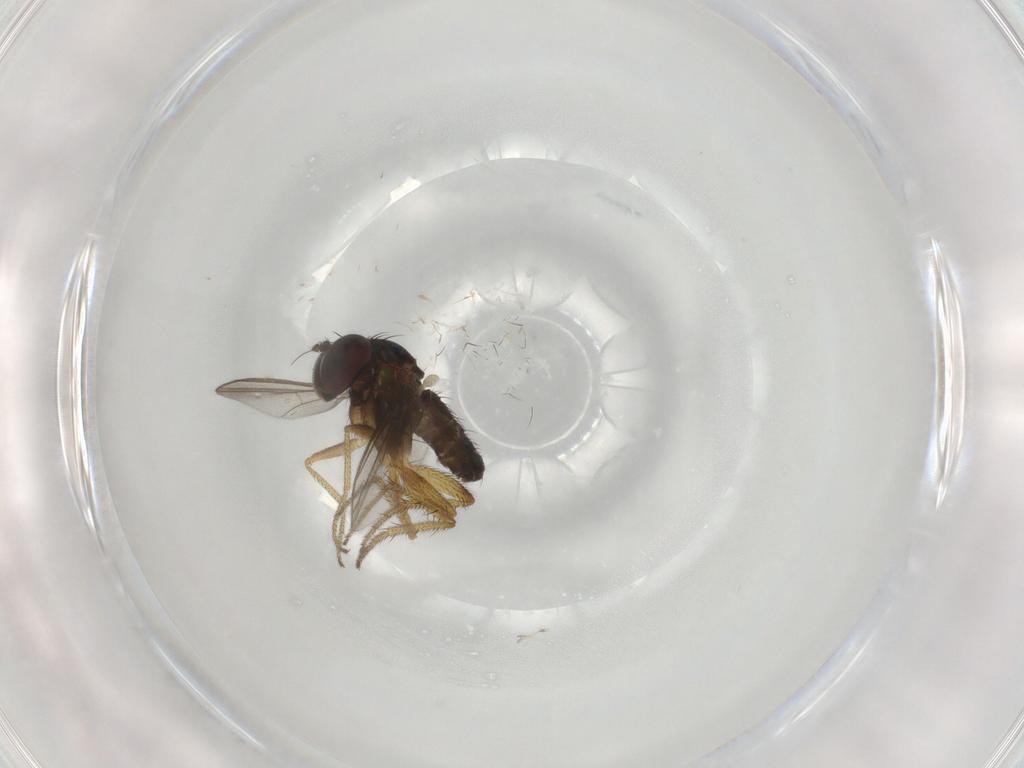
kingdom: Animalia
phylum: Arthropoda
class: Insecta
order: Diptera
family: Dolichopodidae
